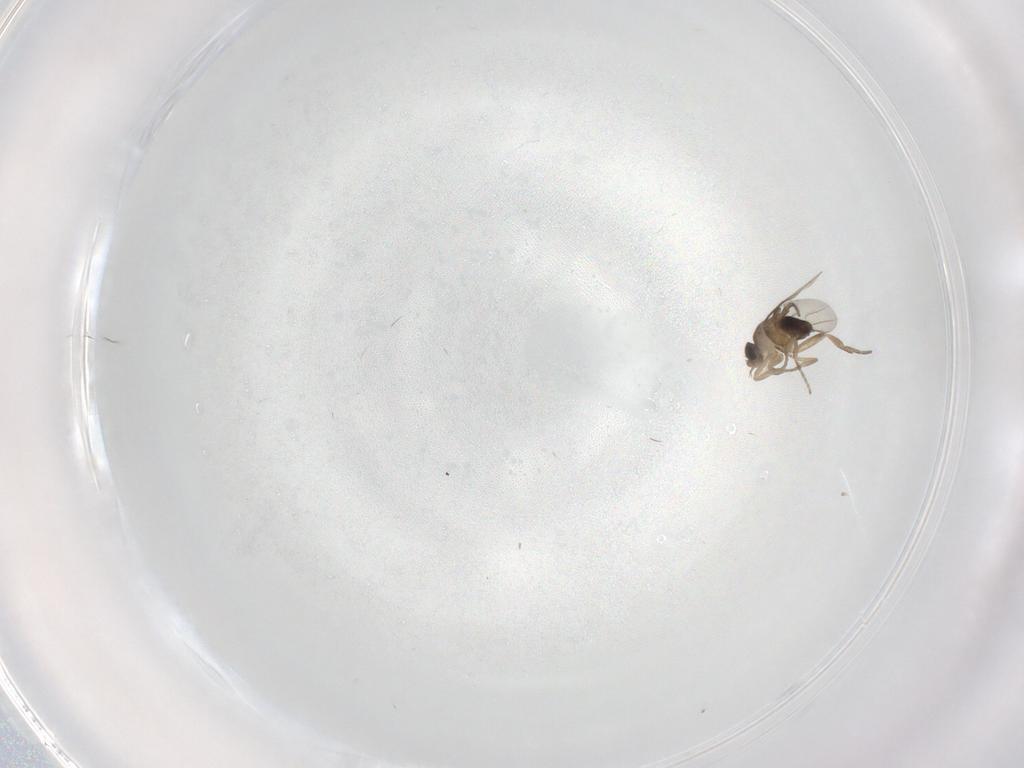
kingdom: Animalia
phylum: Arthropoda
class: Insecta
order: Diptera
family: Phoridae
